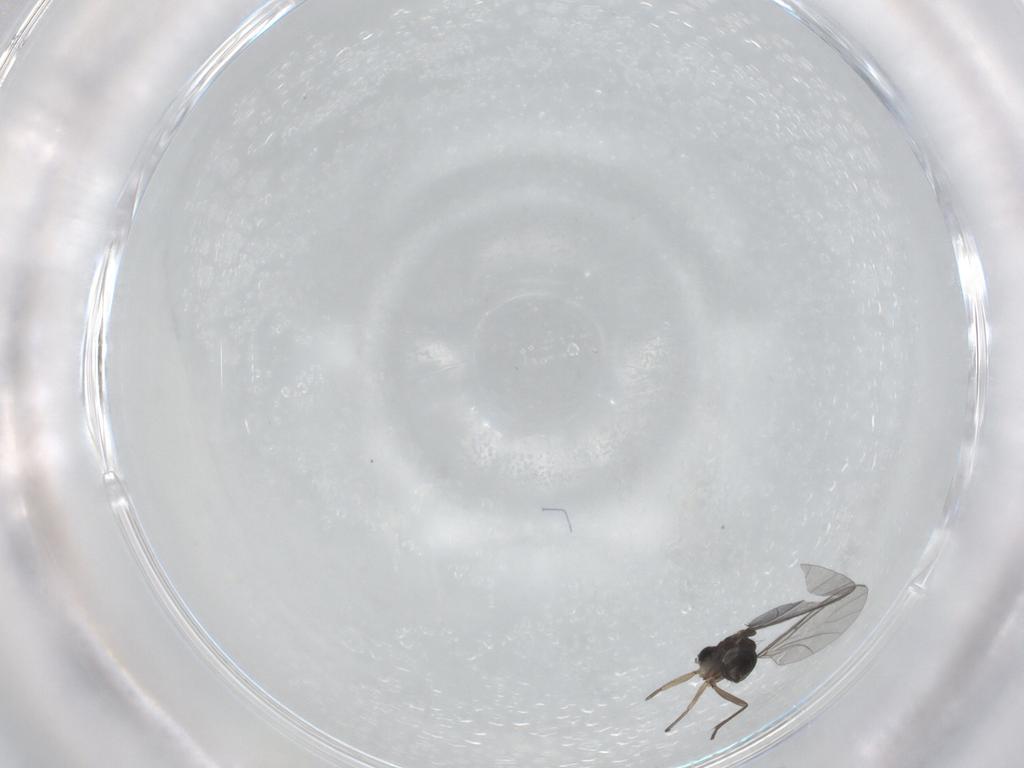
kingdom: Animalia
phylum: Arthropoda
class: Insecta
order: Diptera
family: Sciaridae
